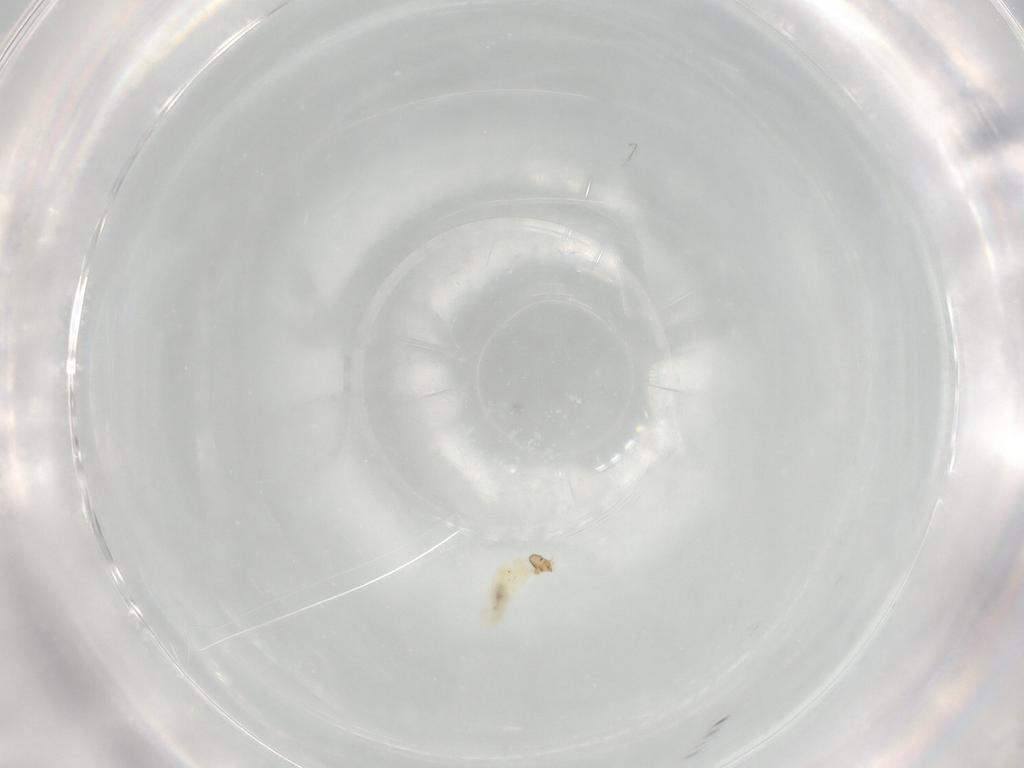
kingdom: Animalia
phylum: Arthropoda
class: Insecta
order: Diptera
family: Chironomidae
